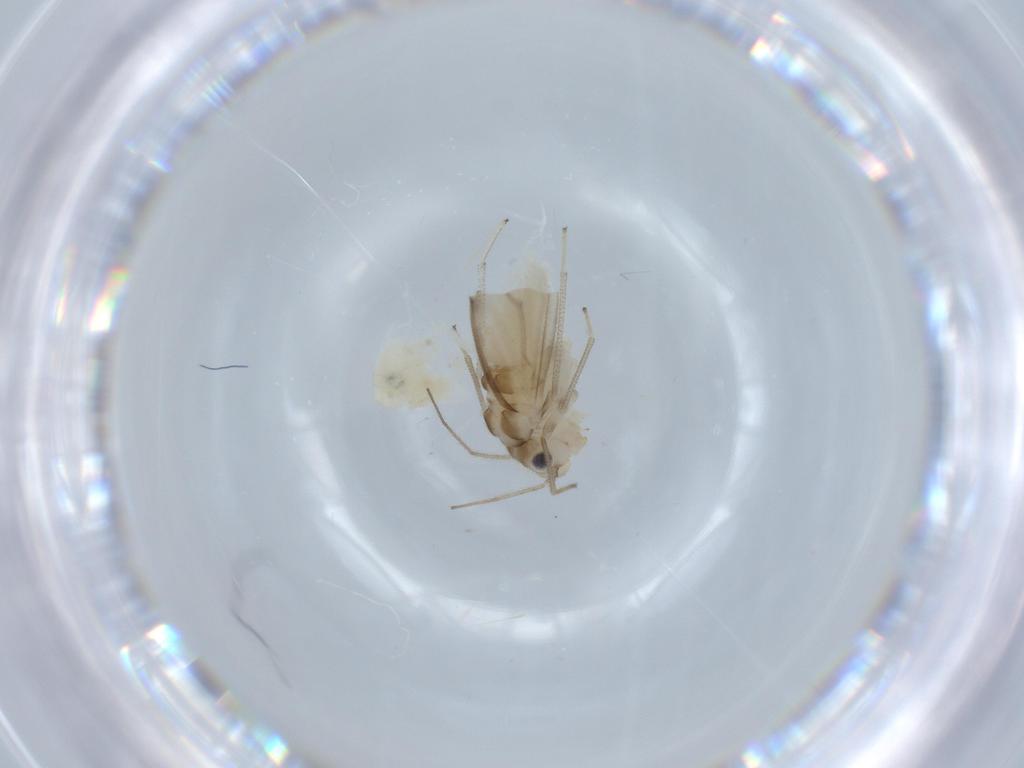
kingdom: Animalia
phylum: Arthropoda
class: Insecta
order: Psocodea
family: Caeciliusidae
